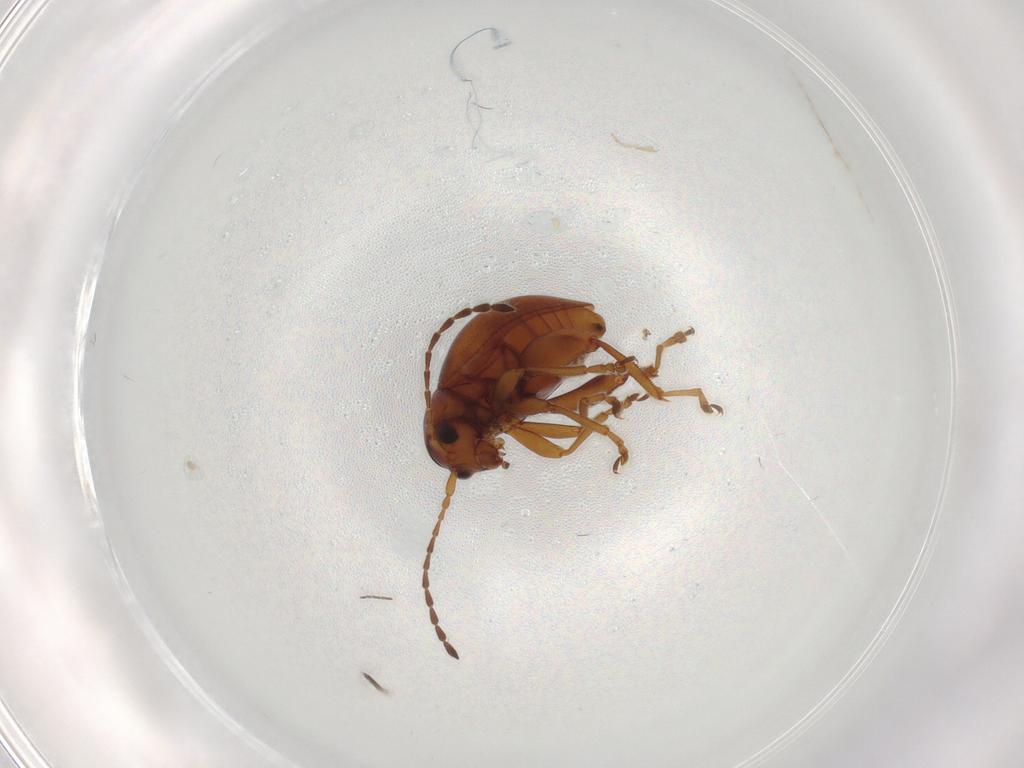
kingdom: Animalia
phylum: Arthropoda
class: Insecta
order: Coleoptera
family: Chrysomelidae
